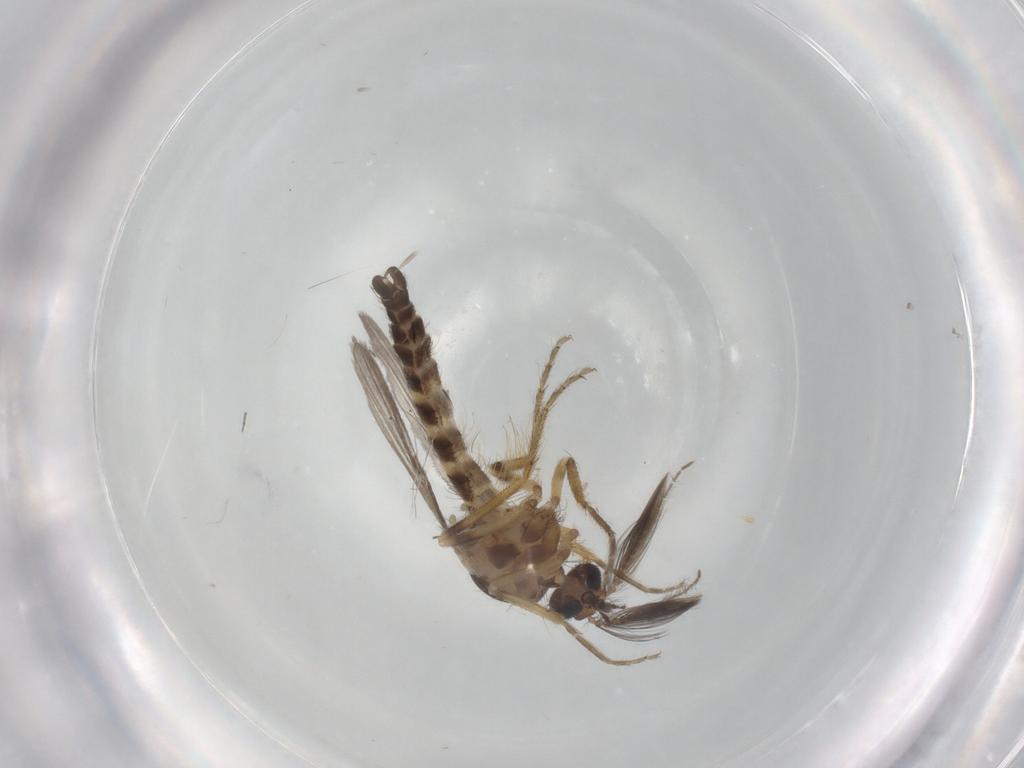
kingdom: Animalia
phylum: Arthropoda
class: Insecta
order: Diptera
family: Ceratopogonidae
